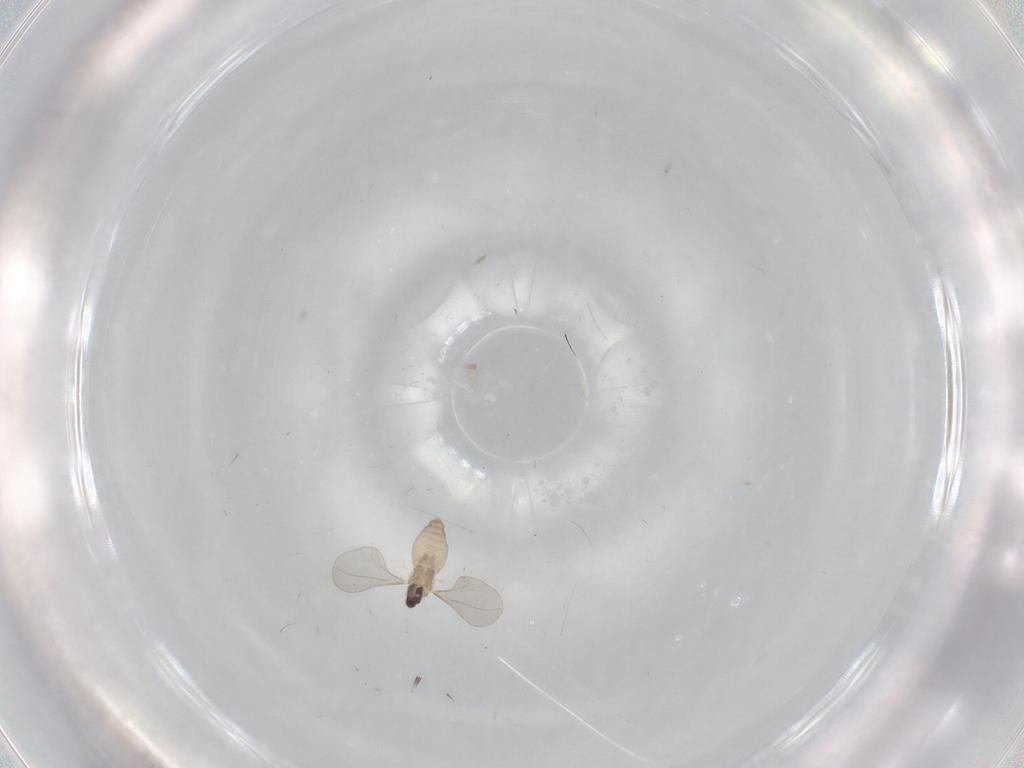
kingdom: Animalia
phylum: Arthropoda
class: Insecta
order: Diptera
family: Cecidomyiidae
